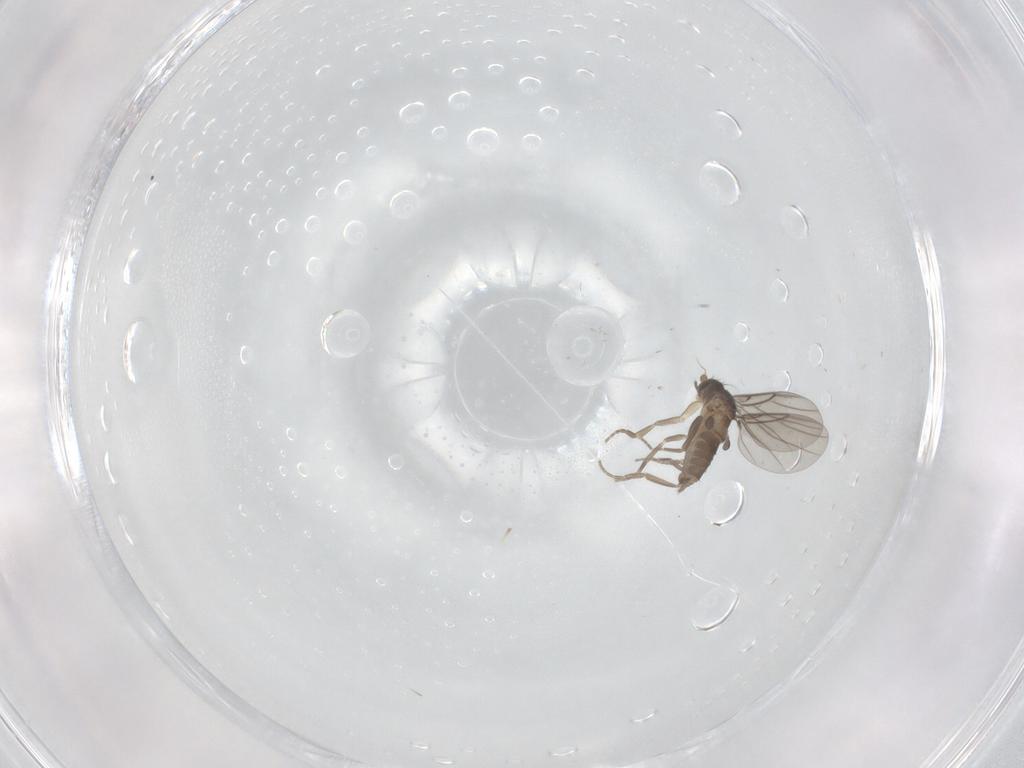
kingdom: Animalia
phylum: Arthropoda
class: Insecta
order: Diptera
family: Phoridae
